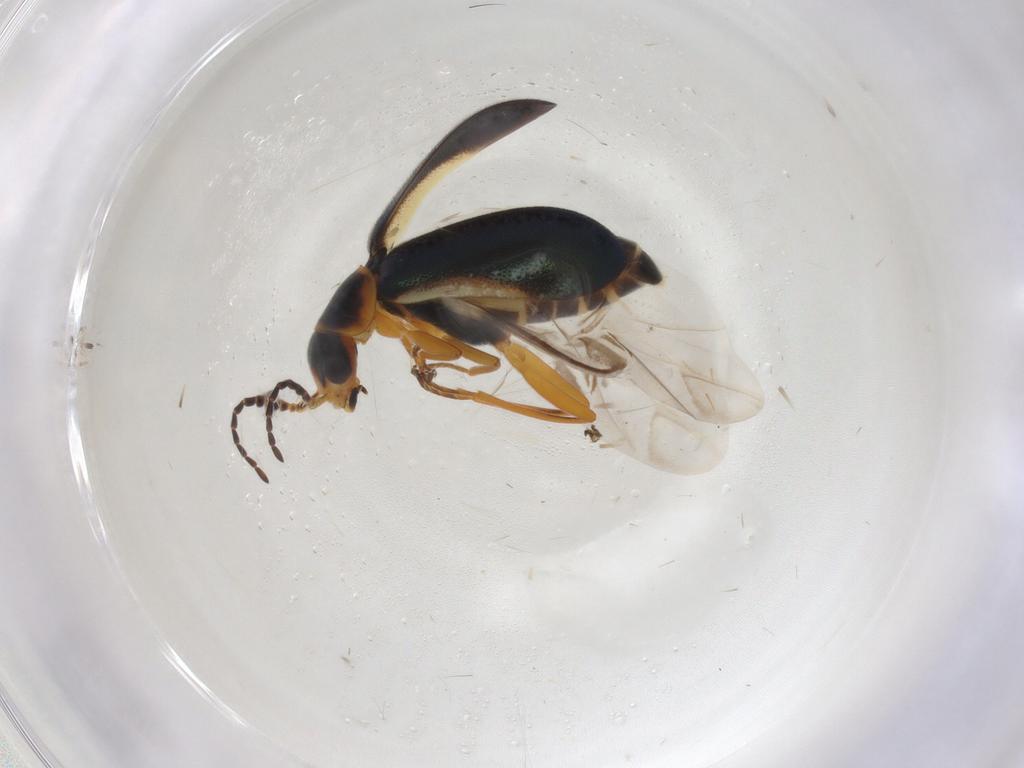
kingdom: Animalia
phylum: Arthropoda
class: Insecta
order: Coleoptera
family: Melyridae
